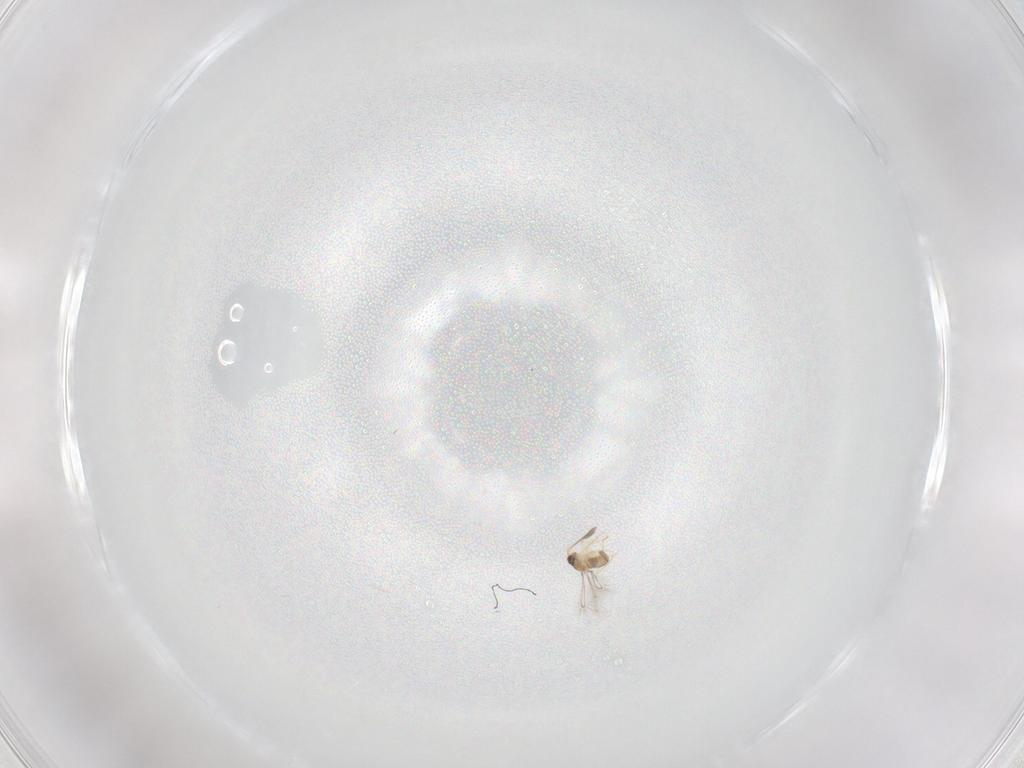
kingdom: Animalia
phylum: Arthropoda
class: Insecta
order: Hymenoptera
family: Mymaridae
